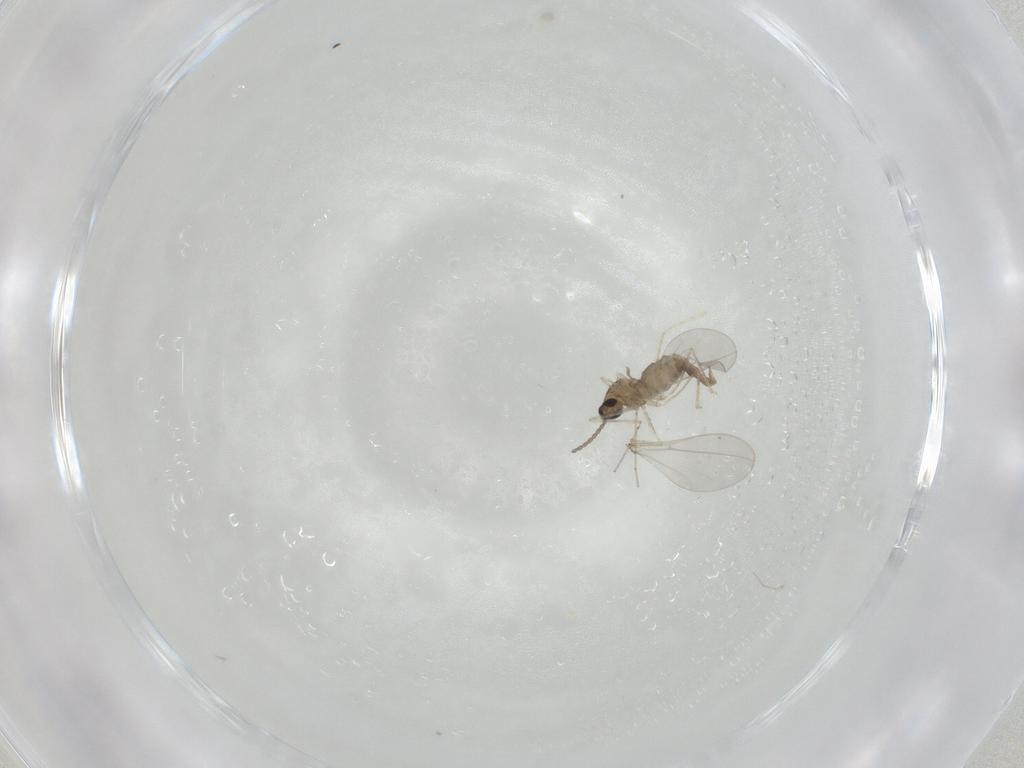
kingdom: Animalia
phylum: Arthropoda
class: Insecta
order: Diptera
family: Cecidomyiidae
